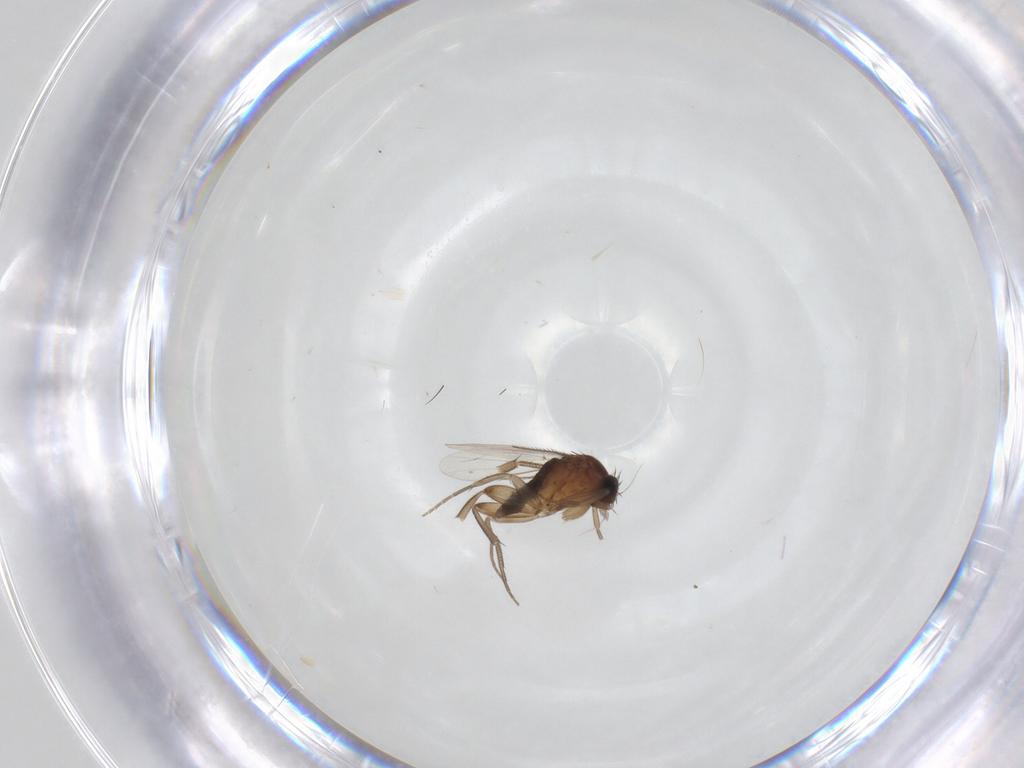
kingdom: Animalia
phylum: Arthropoda
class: Insecta
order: Diptera
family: Phoridae
